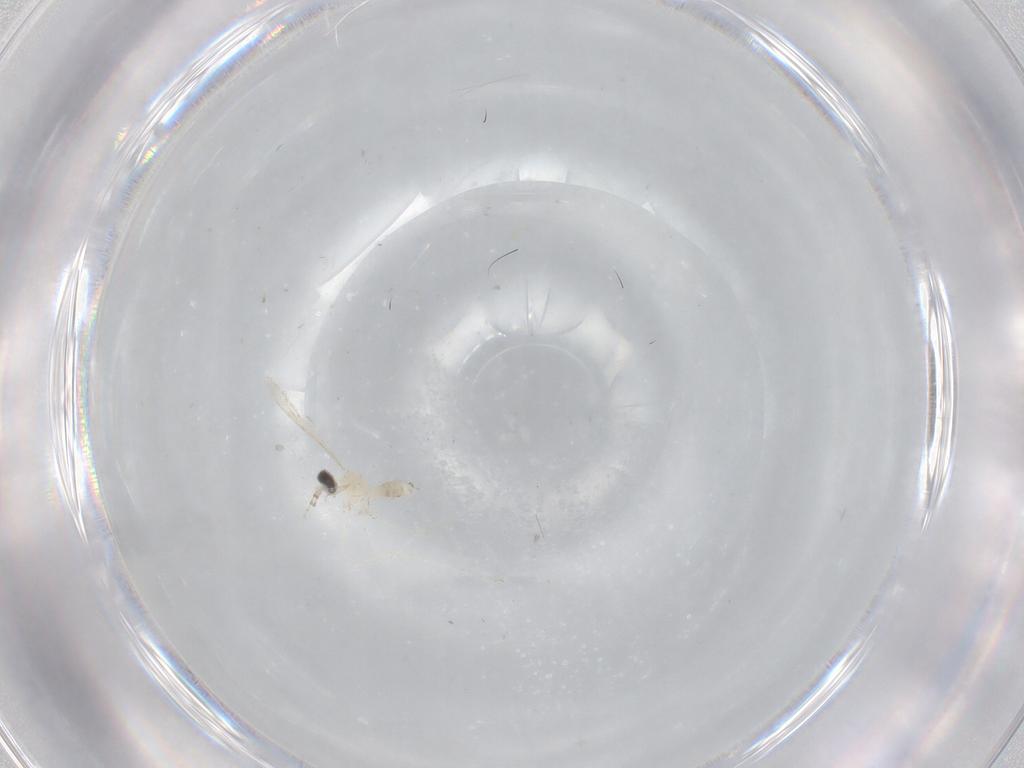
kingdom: Animalia
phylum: Arthropoda
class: Insecta
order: Diptera
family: Cecidomyiidae
